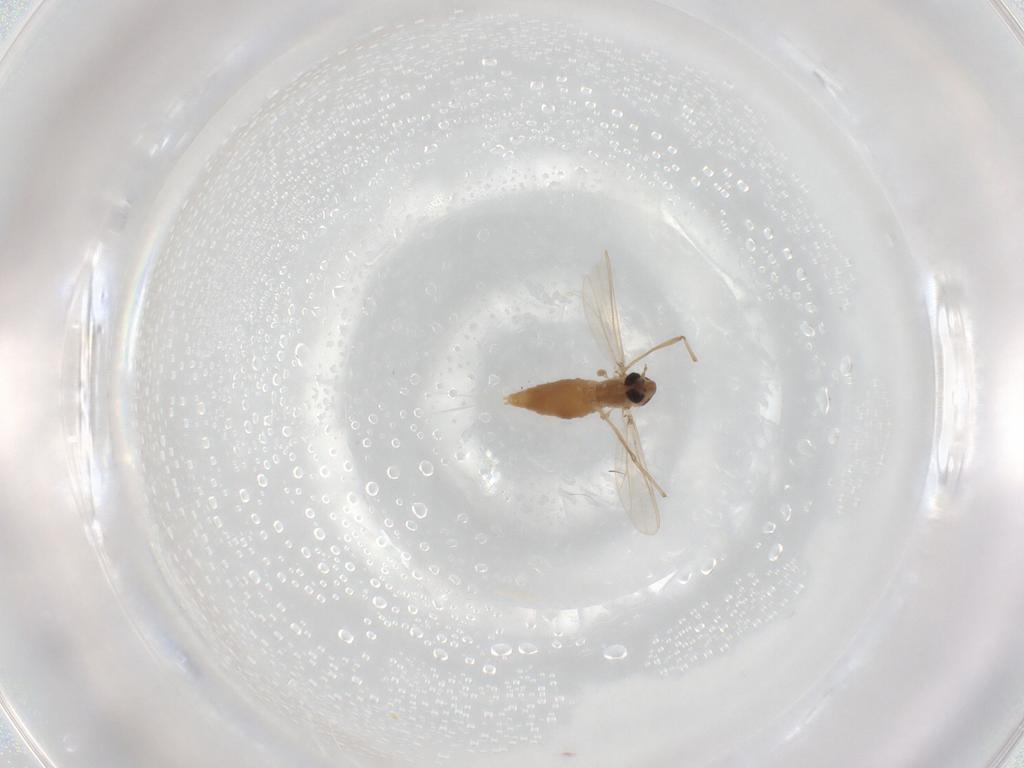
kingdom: Animalia
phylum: Arthropoda
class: Insecta
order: Diptera
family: Chironomidae
